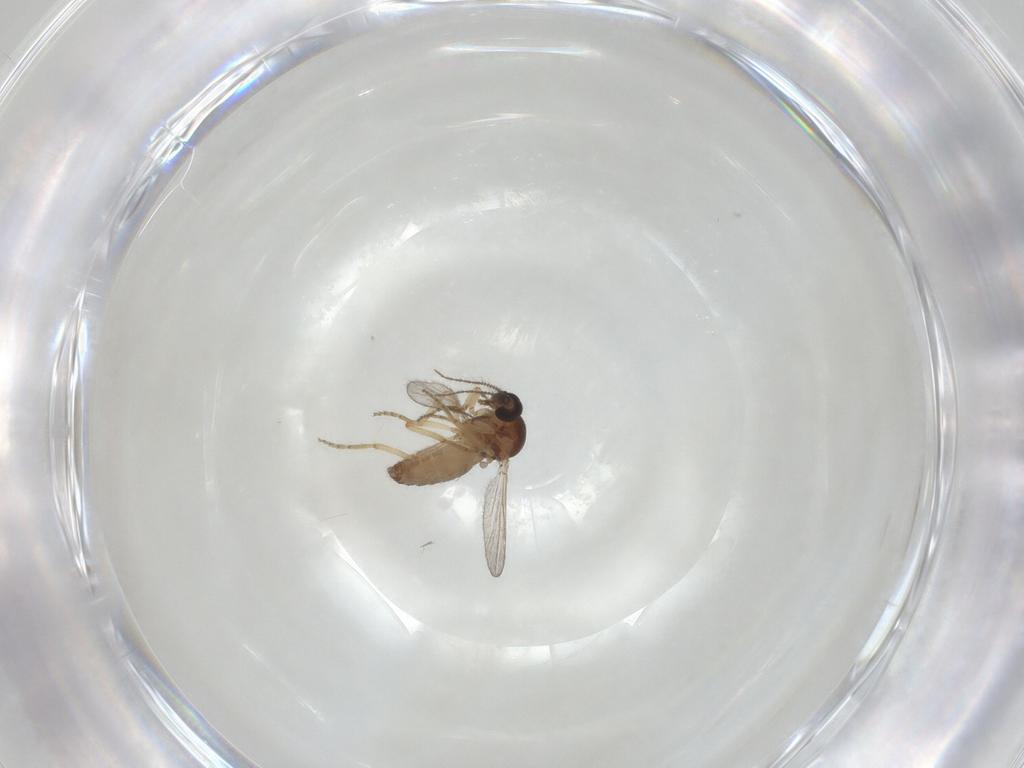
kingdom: Animalia
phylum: Arthropoda
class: Insecta
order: Diptera
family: Ceratopogonidae
